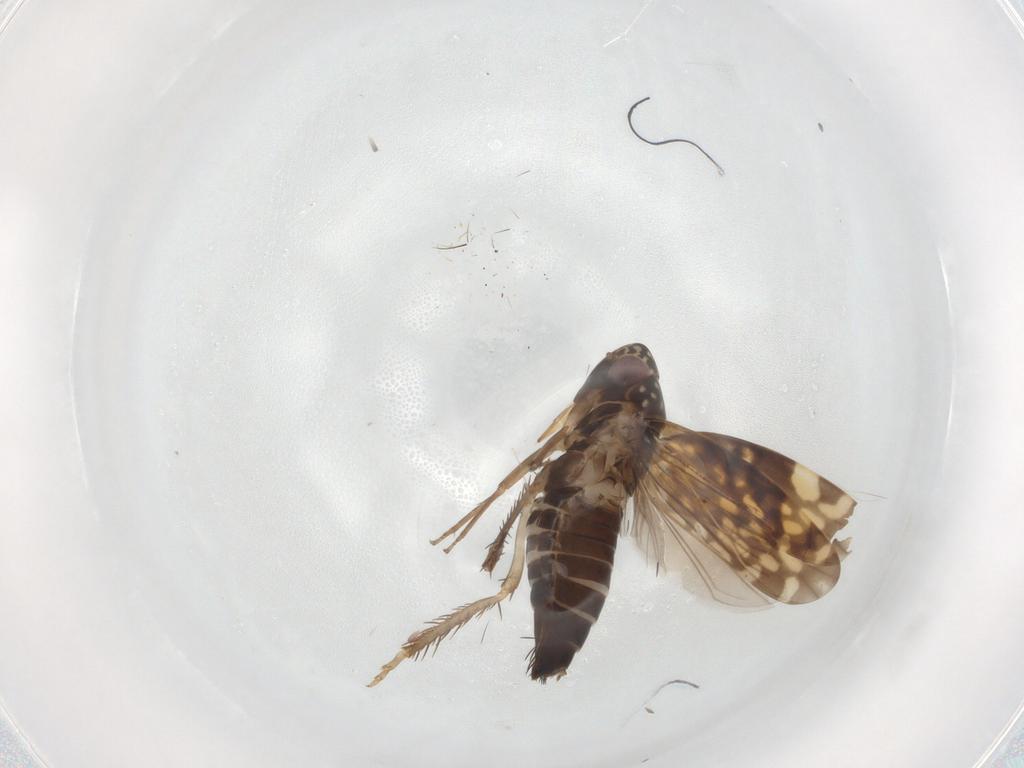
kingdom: Animalia
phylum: Arthropoda
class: Insecta
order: Hemiptera
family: Cicadellidae
